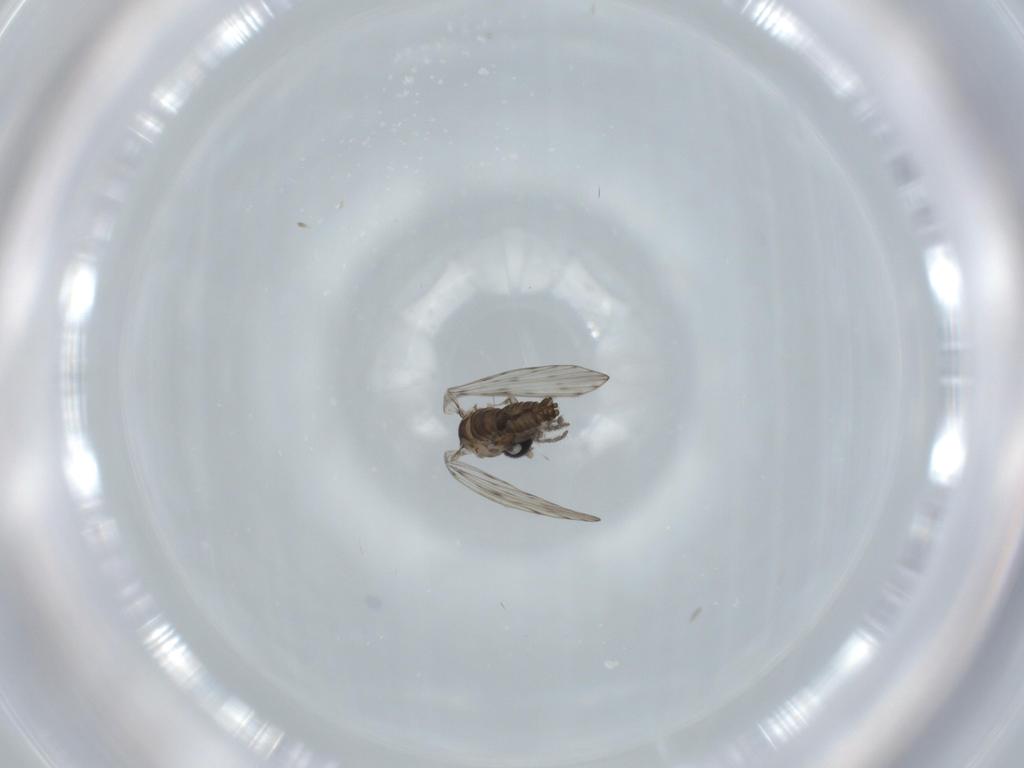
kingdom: Animalia
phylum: Arthropoda
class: Insecta
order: Diptera
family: Psychodidae
